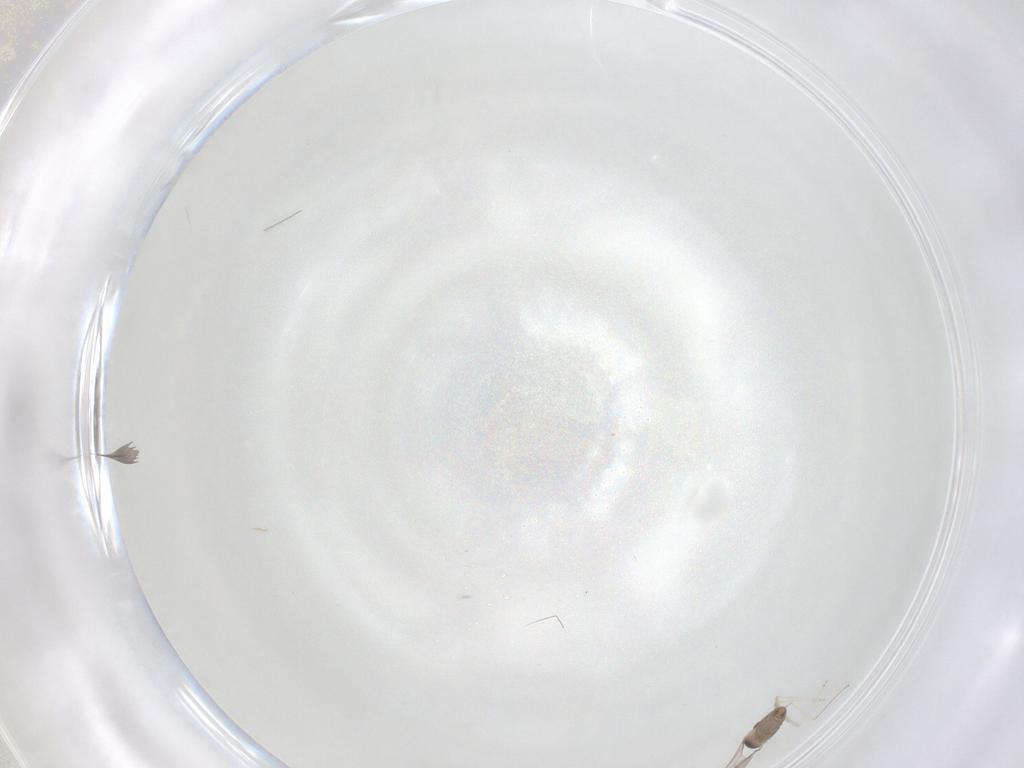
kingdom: Animalia
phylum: Arthropoda
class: Insecta
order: Diptera
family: Cecidomyiidae
